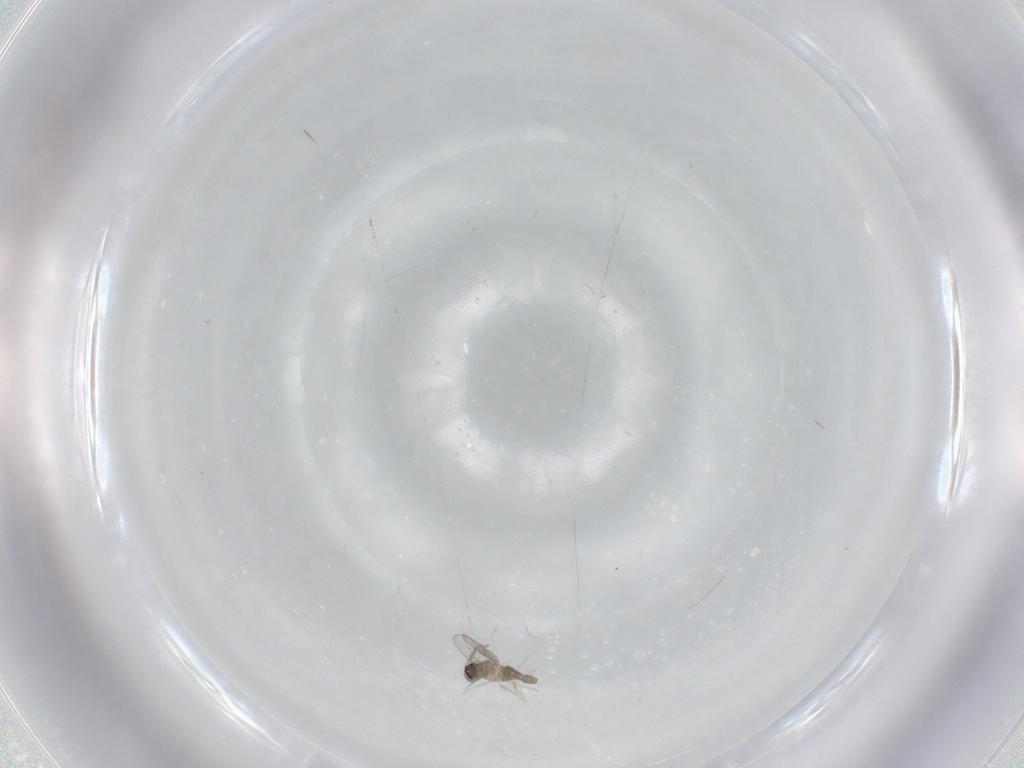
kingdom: Animalia
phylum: Arthropoda
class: Insecta
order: Diptera
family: Cecidomyiidae
